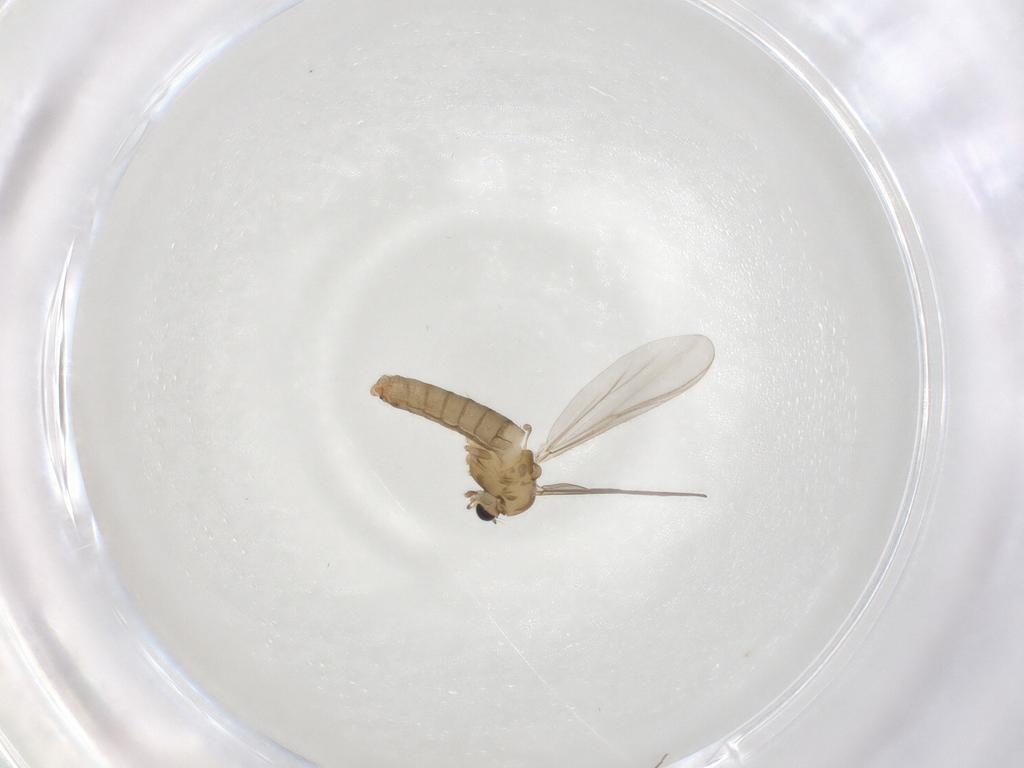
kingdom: Animalia
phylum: Arthropoda
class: Insecta
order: Diptera
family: Chironomidae
